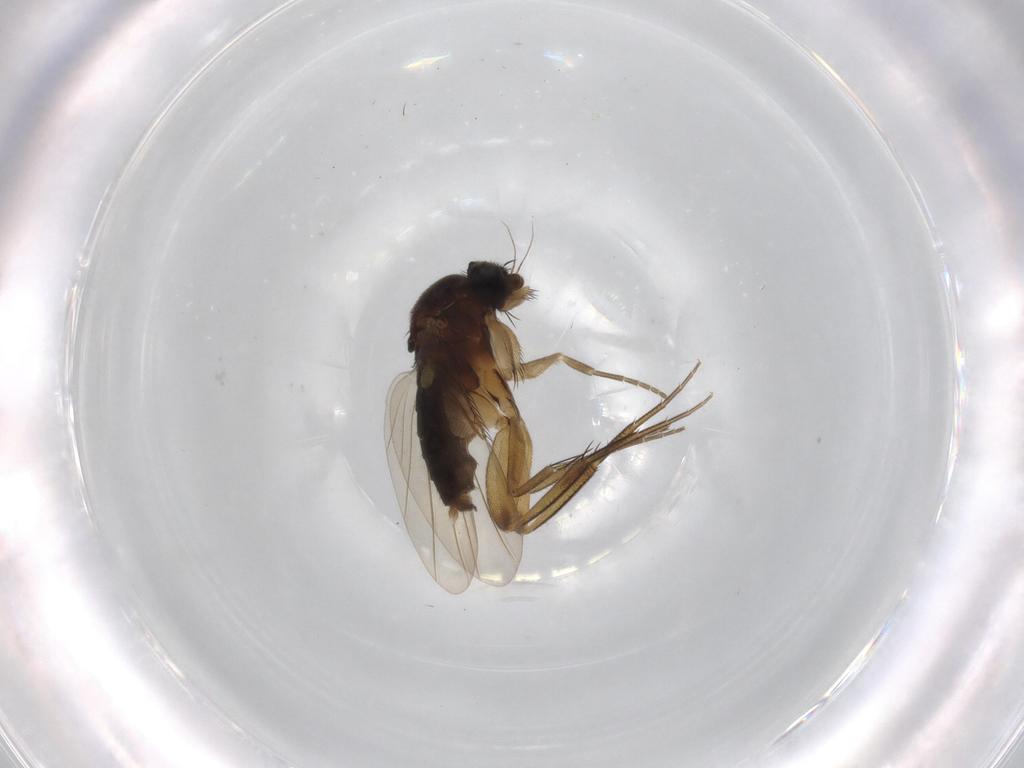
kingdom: Animalia
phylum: Arthropoda
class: Insecta
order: Diptera
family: Phoridae
